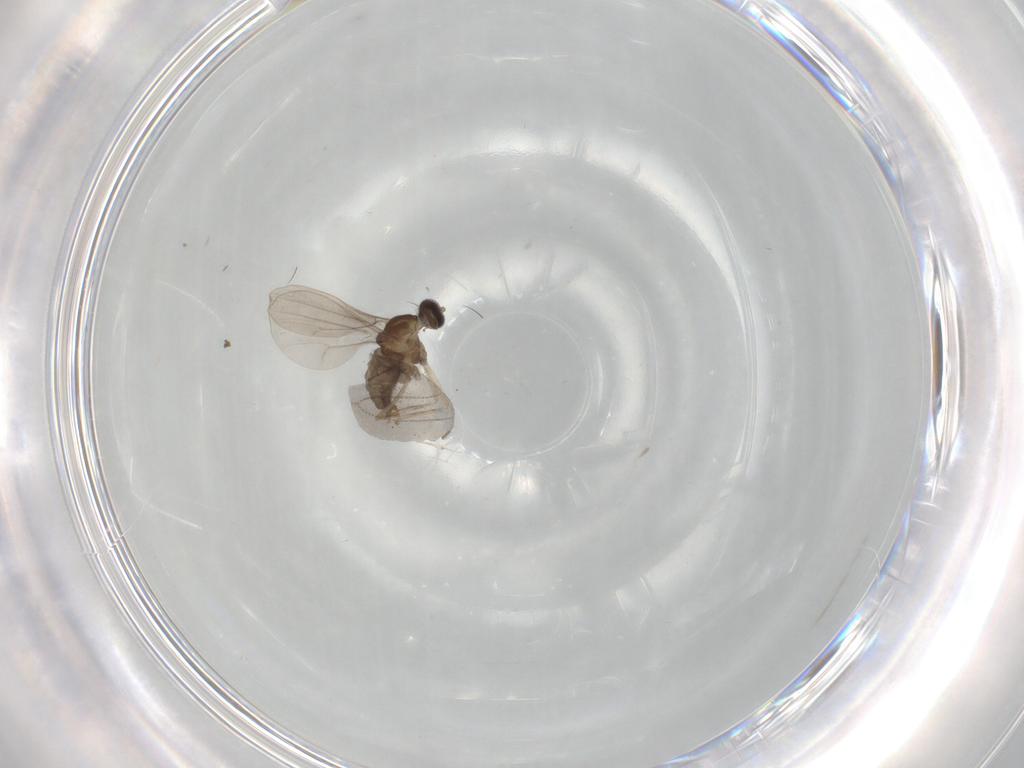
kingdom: Animalia
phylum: Arthropoda
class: Insecta
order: Diptera
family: Sciaridae
